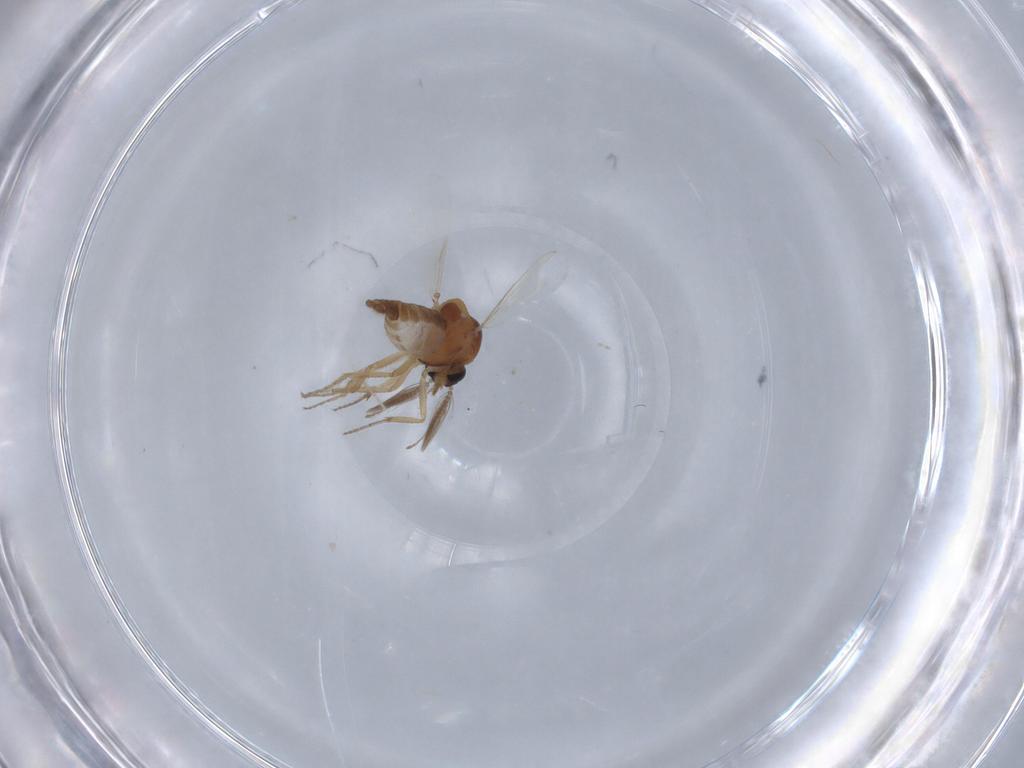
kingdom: Animalia
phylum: Arthropoda
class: Insecta
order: Diptera
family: Ceratopogonidae
